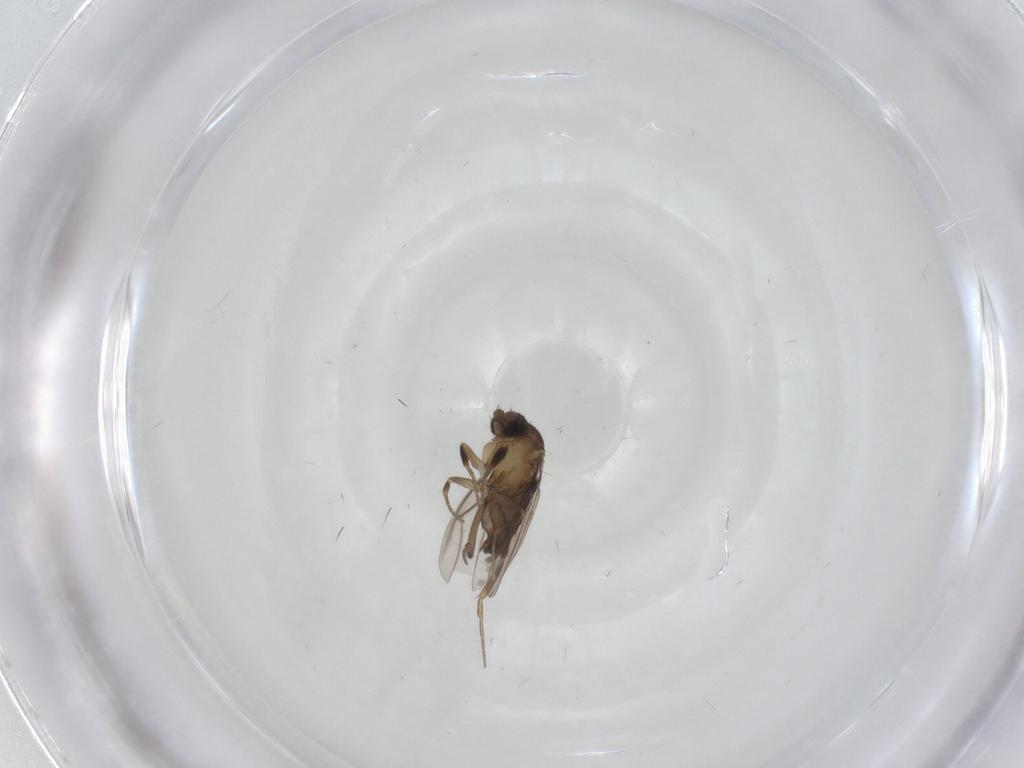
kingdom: Animalia
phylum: Arthropoda
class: Insecta
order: Diptera
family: Phoridae
